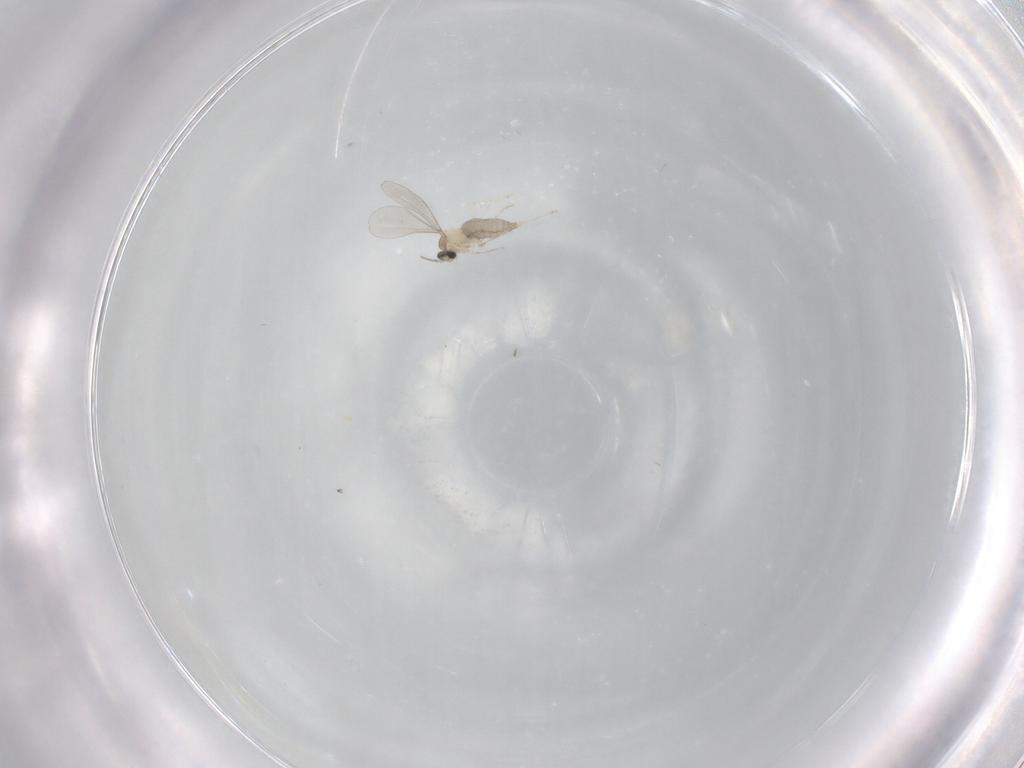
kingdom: Animalia
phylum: Arthropoda
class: Insecta
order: Diptera
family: Chironomidae
